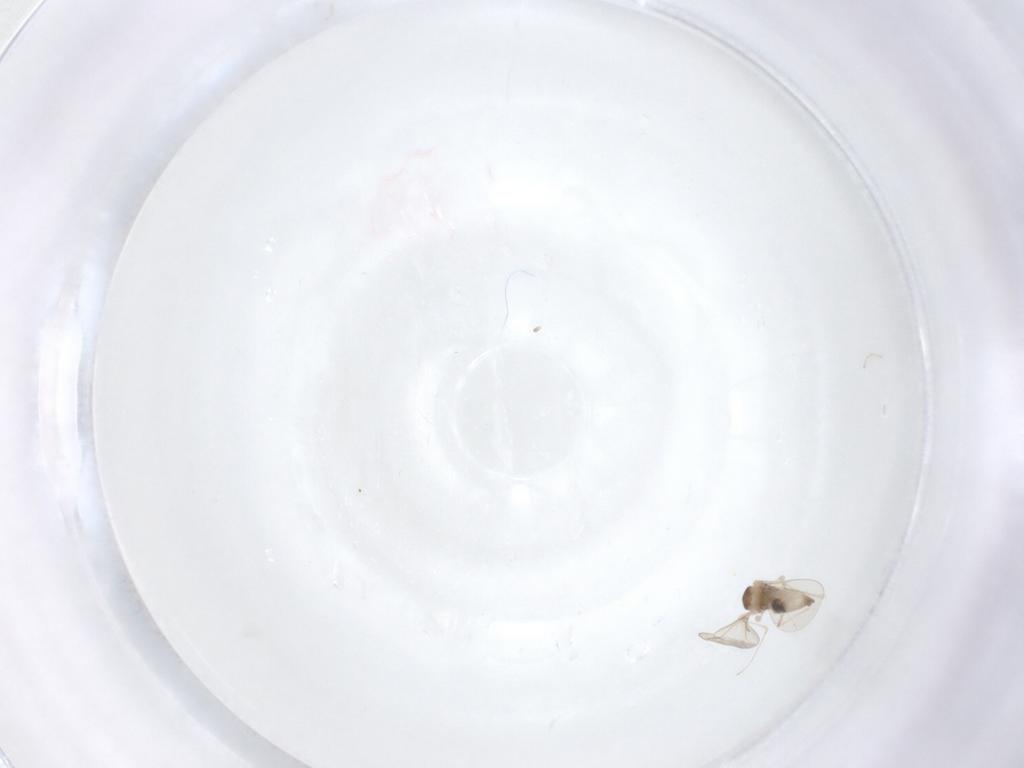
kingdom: Animalia
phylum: Arthropoda
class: Insecta
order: Diptera
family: Cecidomyiidae
